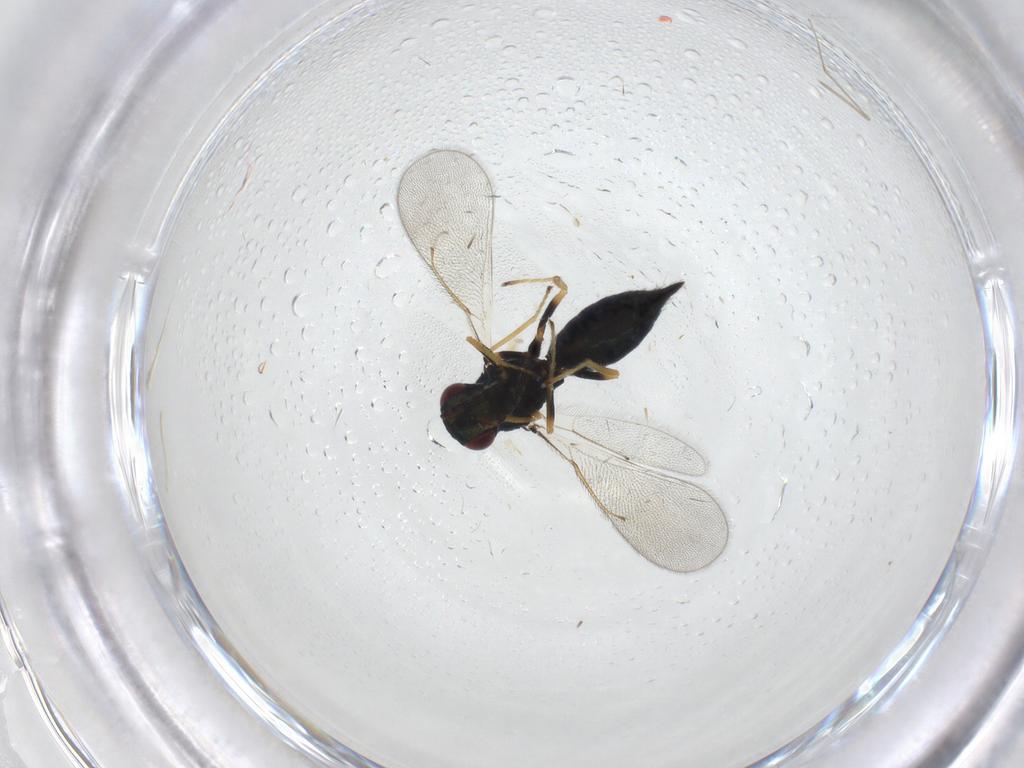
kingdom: Animalia
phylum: Arthropoda
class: Insecta
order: Hymenoptera
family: Eulophidae
